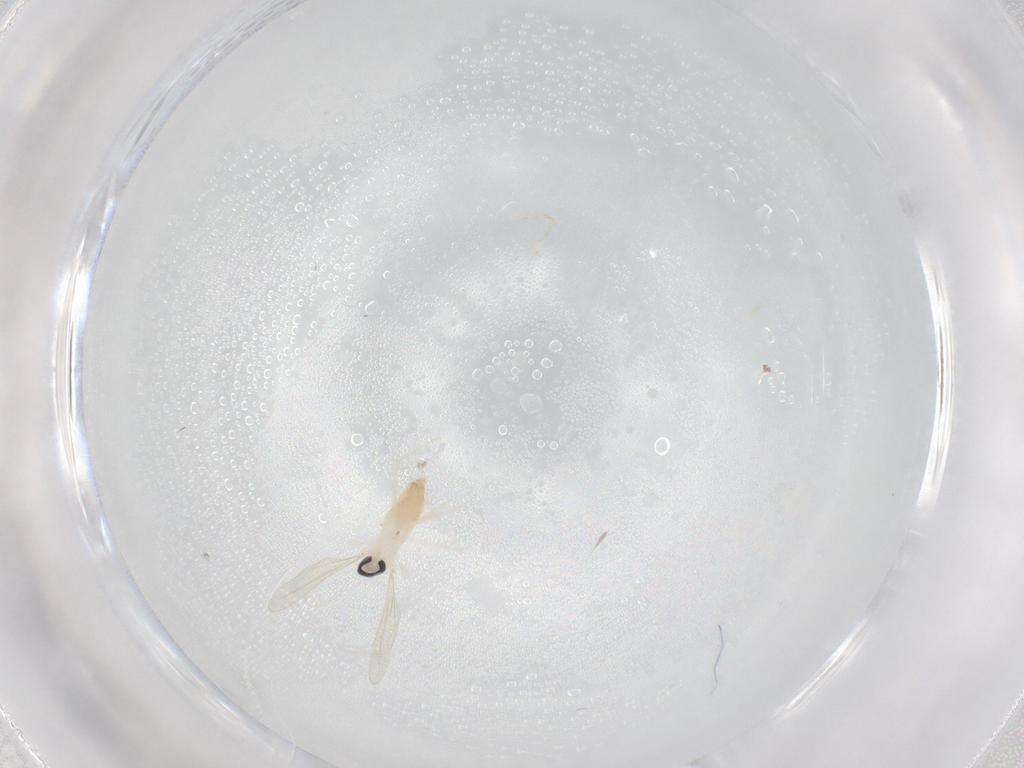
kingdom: Animalia
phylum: Arthropoda
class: Insecta
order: Diptera
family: Cecidomyiidae
